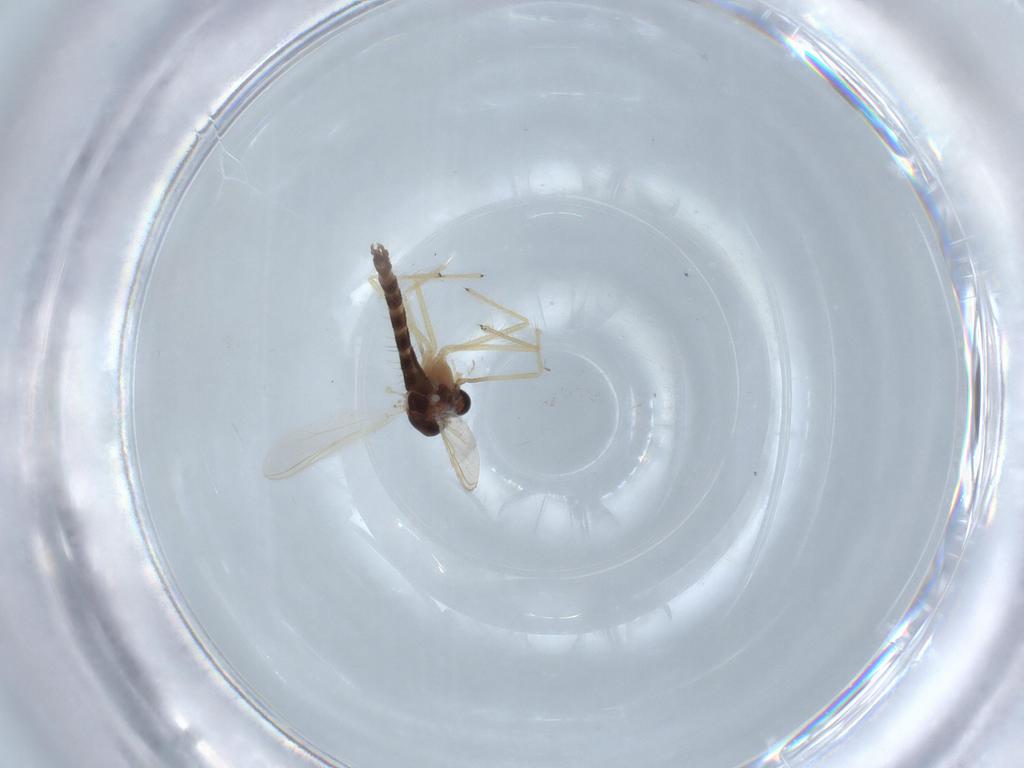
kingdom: Animalia
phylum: Arthropoda
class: Insecta
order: Diptera
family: Chironomidae
